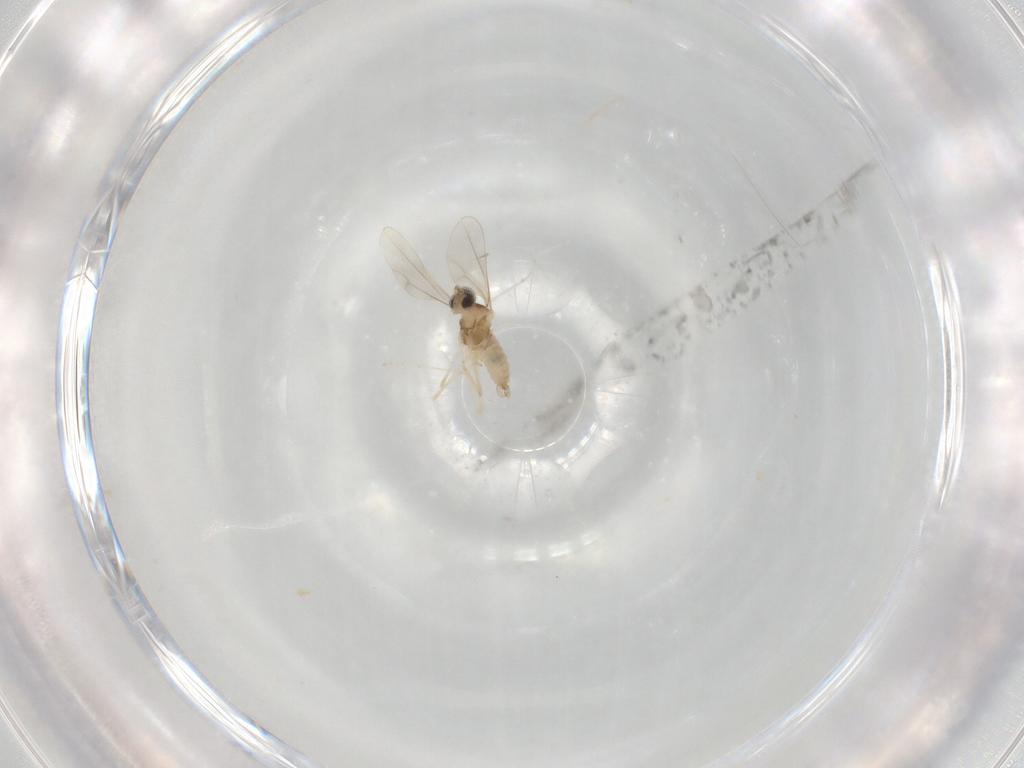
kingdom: Animalia
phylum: Arthropoda
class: Insecta
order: Diptera
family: Cecidomyiidae
